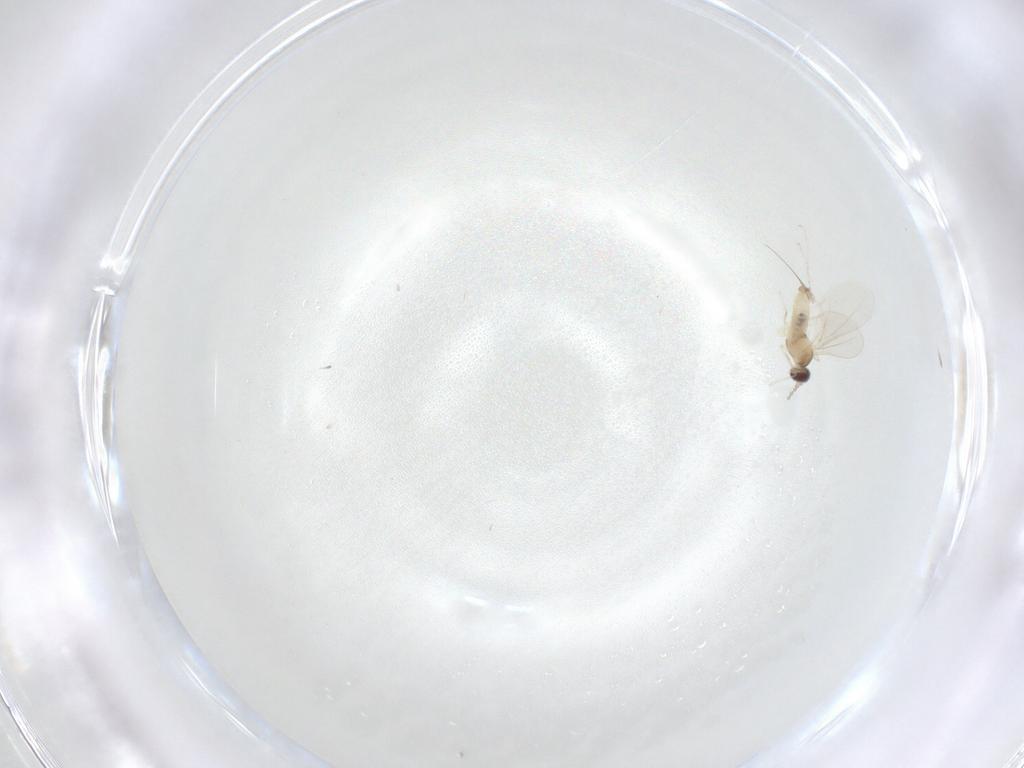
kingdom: Animalia
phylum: Arthropoda
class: Insecta
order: Diptera
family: Cecidomyiidae
